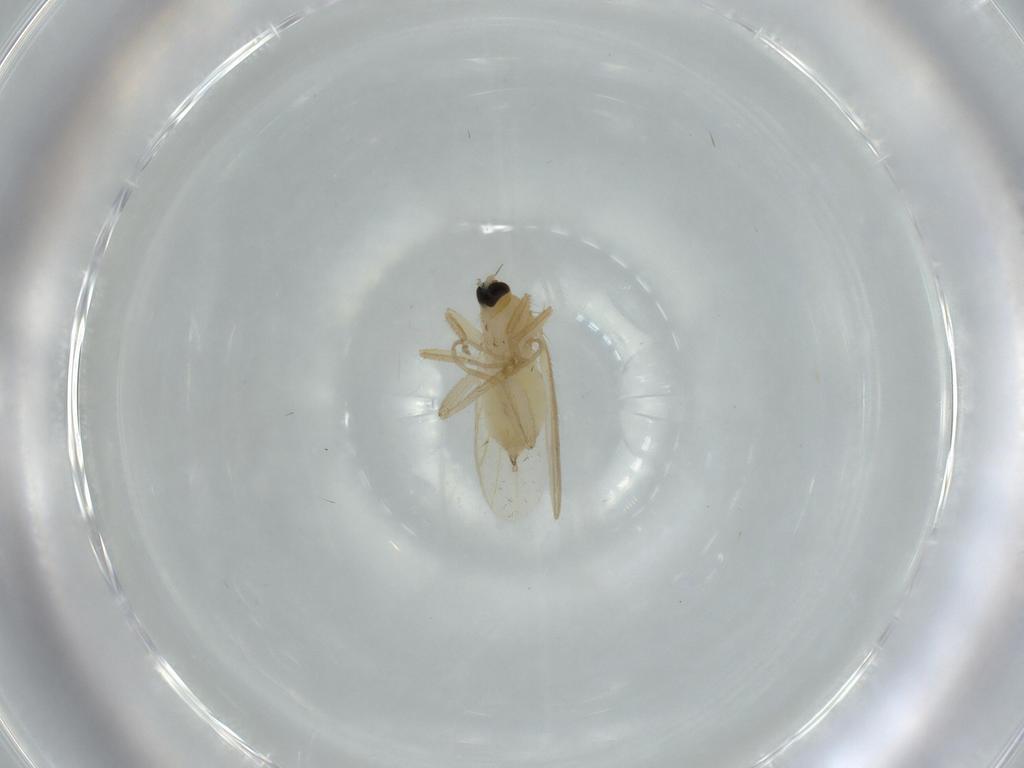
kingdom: Animalia
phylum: Arthropoda
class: Insecta
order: Diptera
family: Hybotidae
